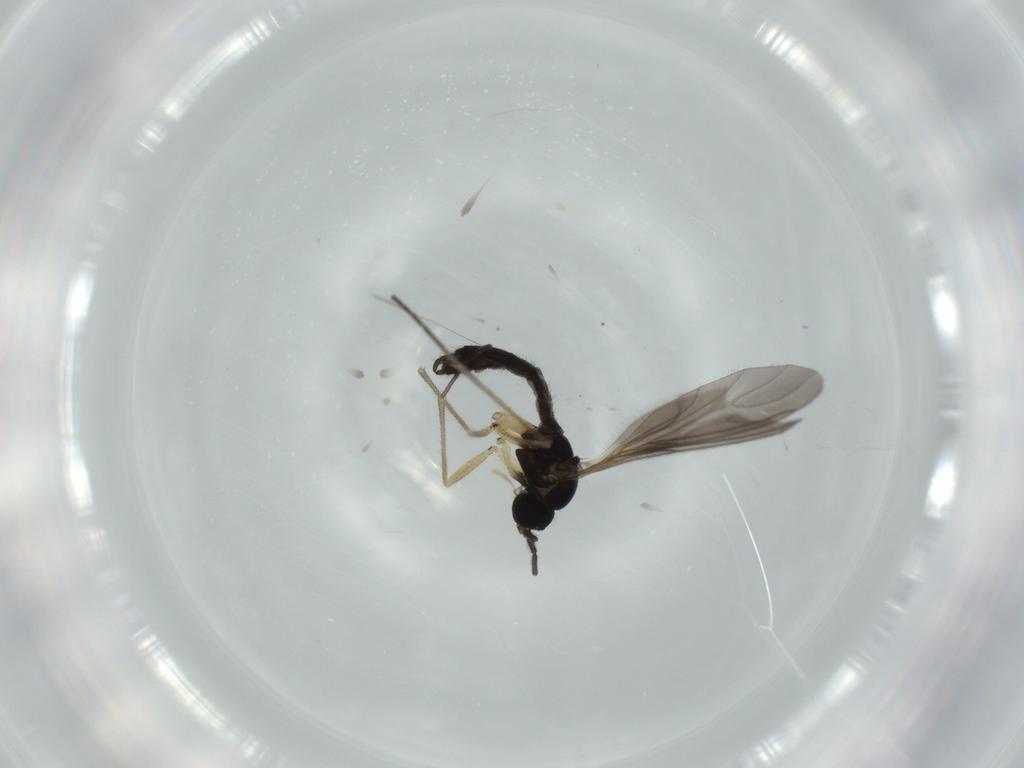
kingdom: Animalia
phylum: Arthropoda
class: Insecta
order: Diptera
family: Sciaridae
